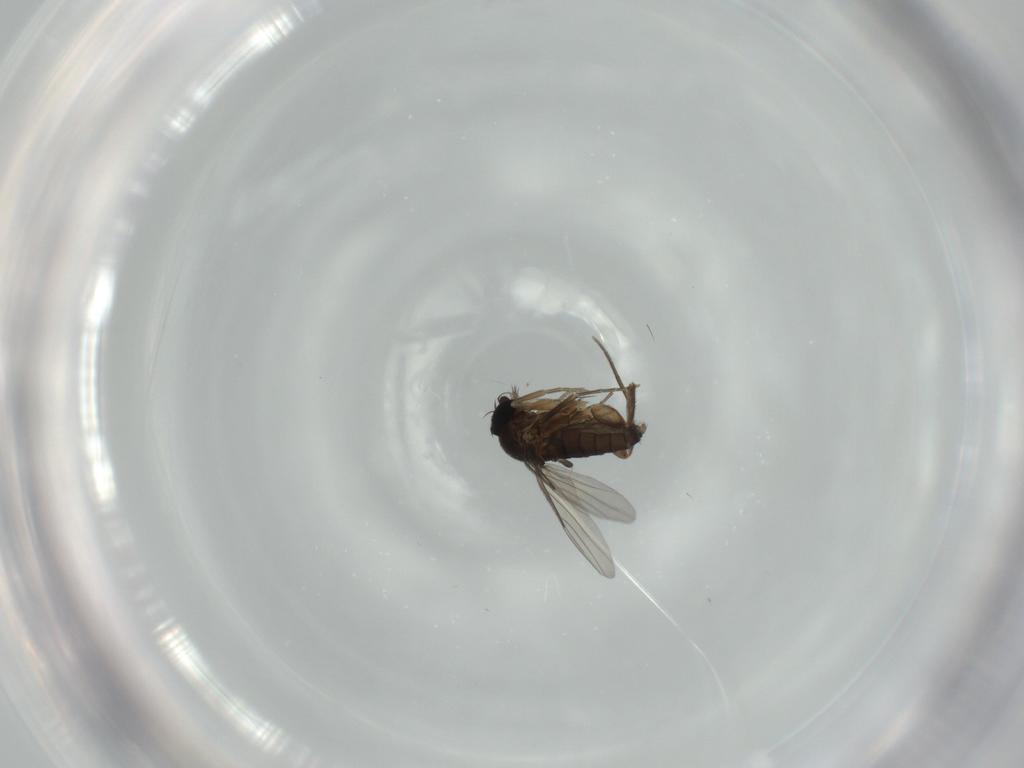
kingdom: Animalia
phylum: Arthropoda
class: Insecta
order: Diptera
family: Phoridae
